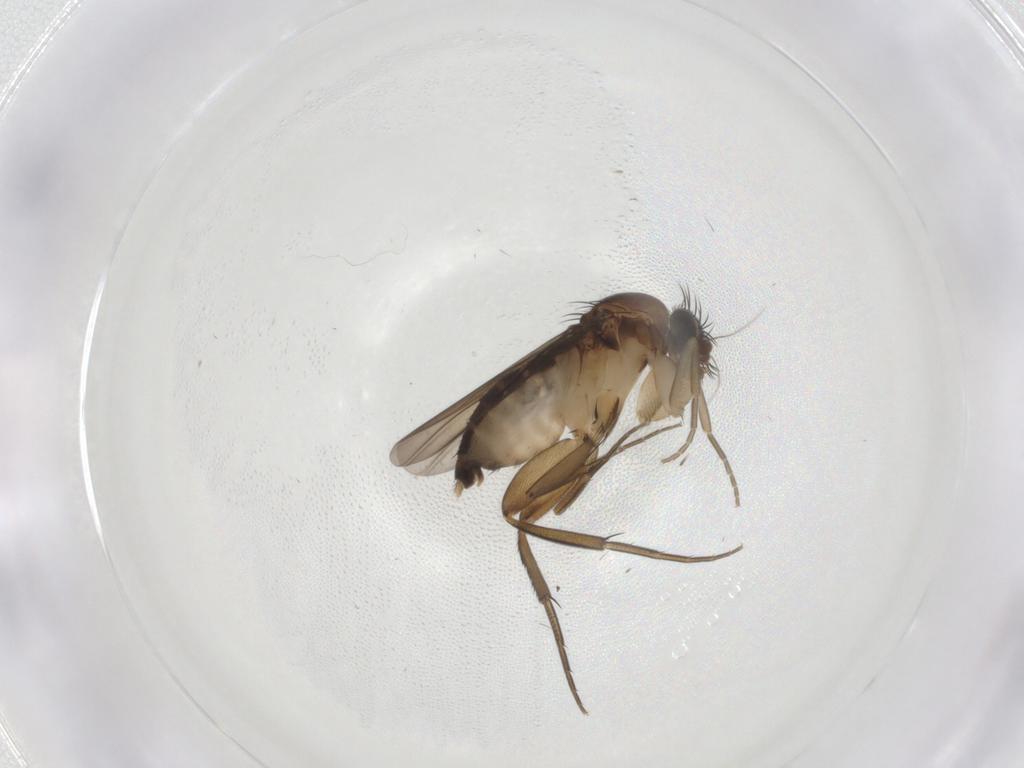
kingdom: Animalia
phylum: Arthropoda
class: Insecta
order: Diptera
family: Phoridae
